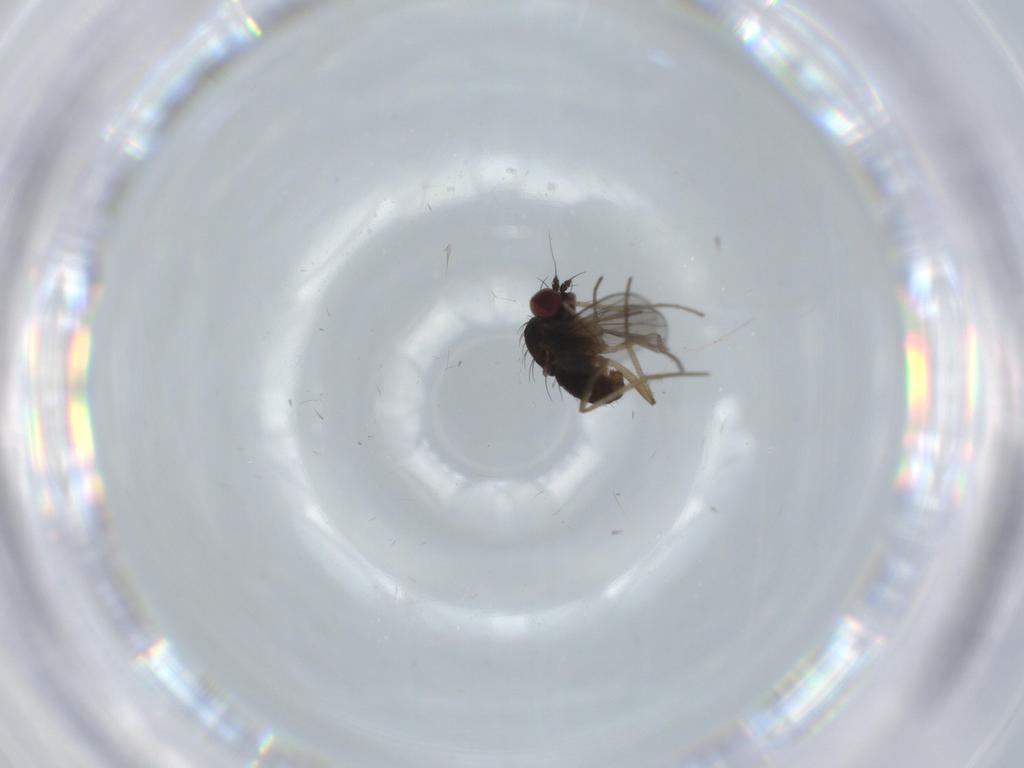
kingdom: Animalia
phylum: Arthropoda
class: Insecta
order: Diptera
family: Dolichopodidae
